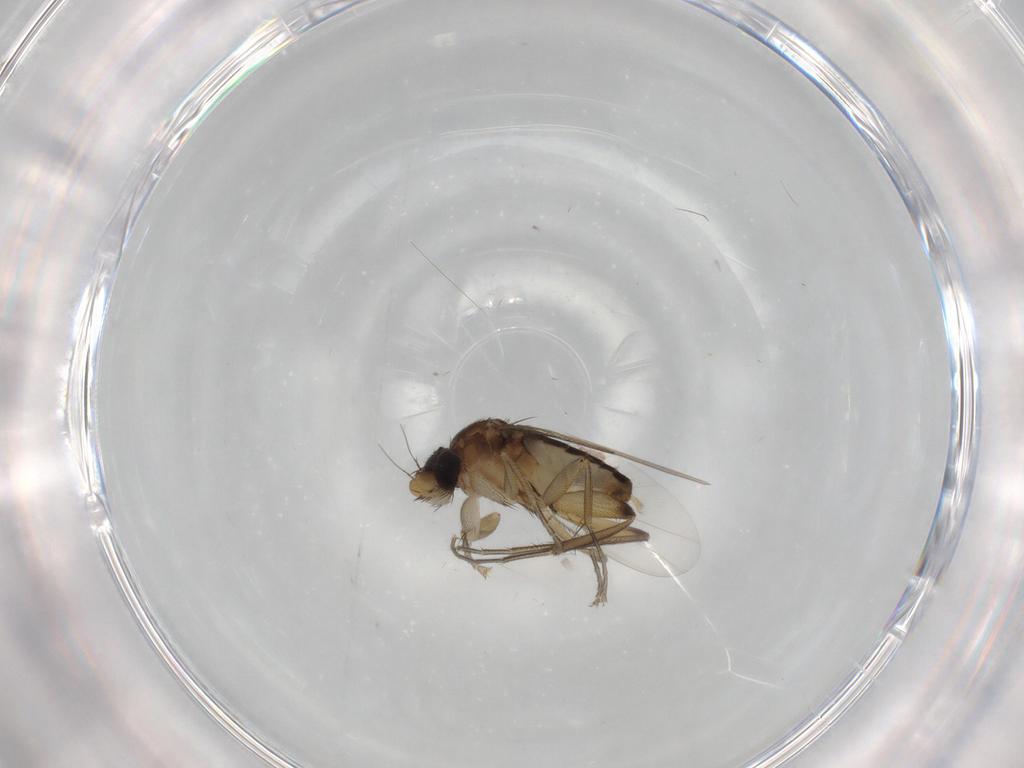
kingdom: Animalia
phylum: Arthropoda
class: Insecta
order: Diptera
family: Phoridae
